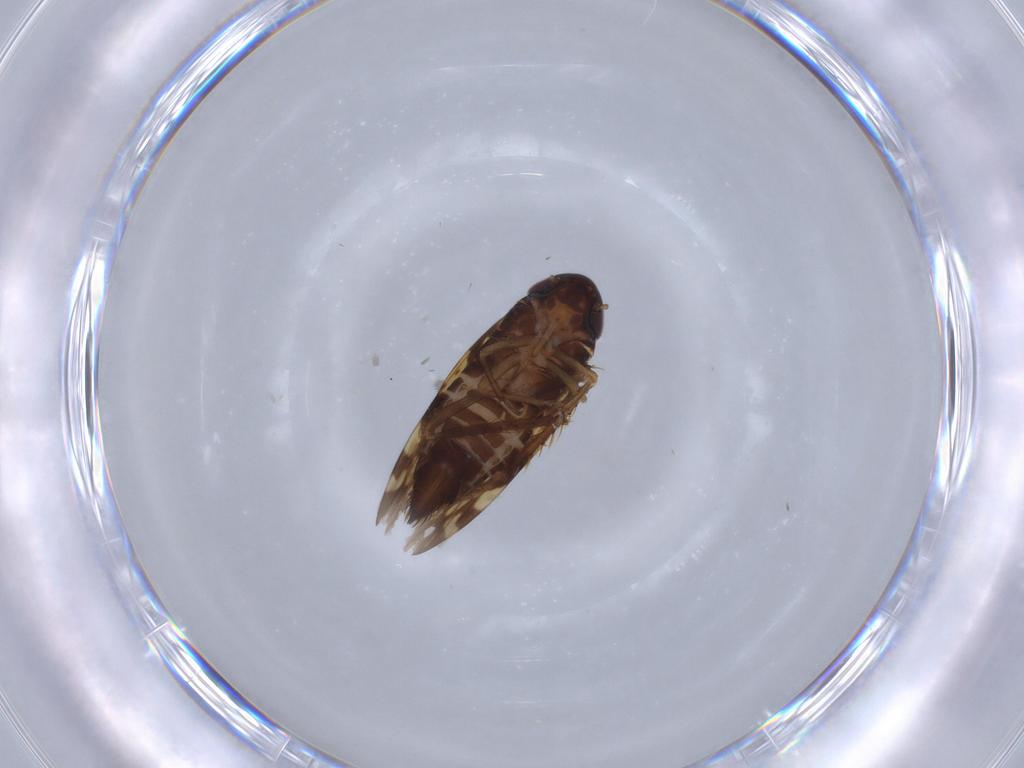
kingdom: Animalia
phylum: Arthropoda
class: Insecta
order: Hemiptera
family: Cicadellidae
